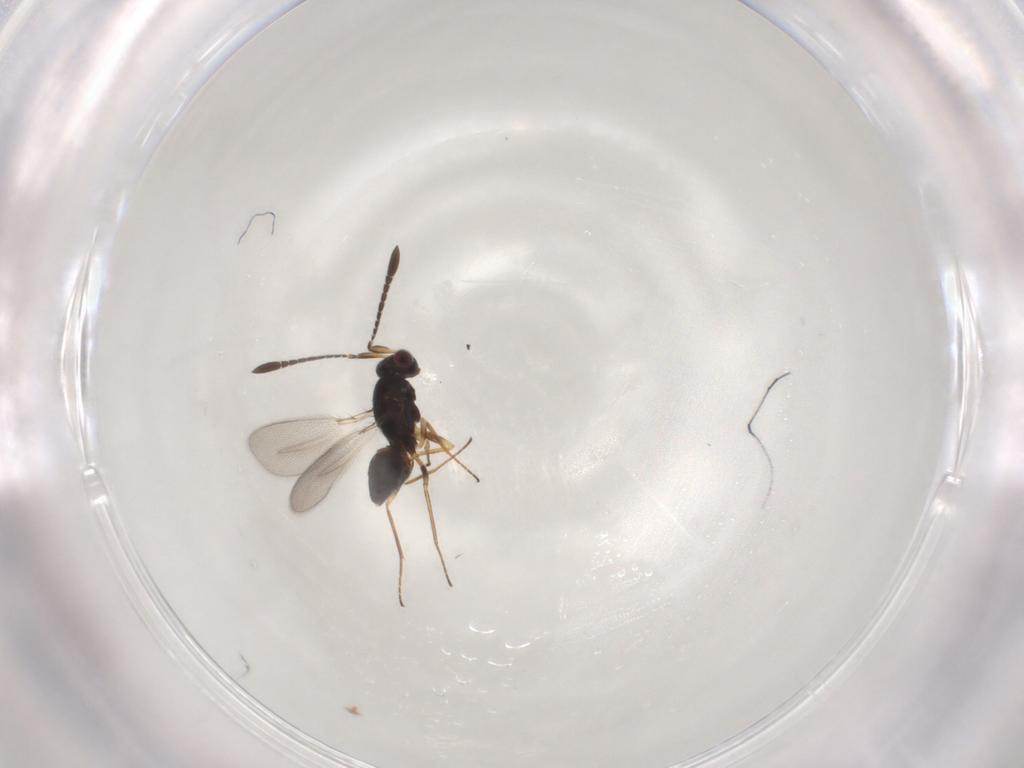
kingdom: Animalia
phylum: Arthropoda
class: Insecta
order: Hymenoptera
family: Mymaridae
